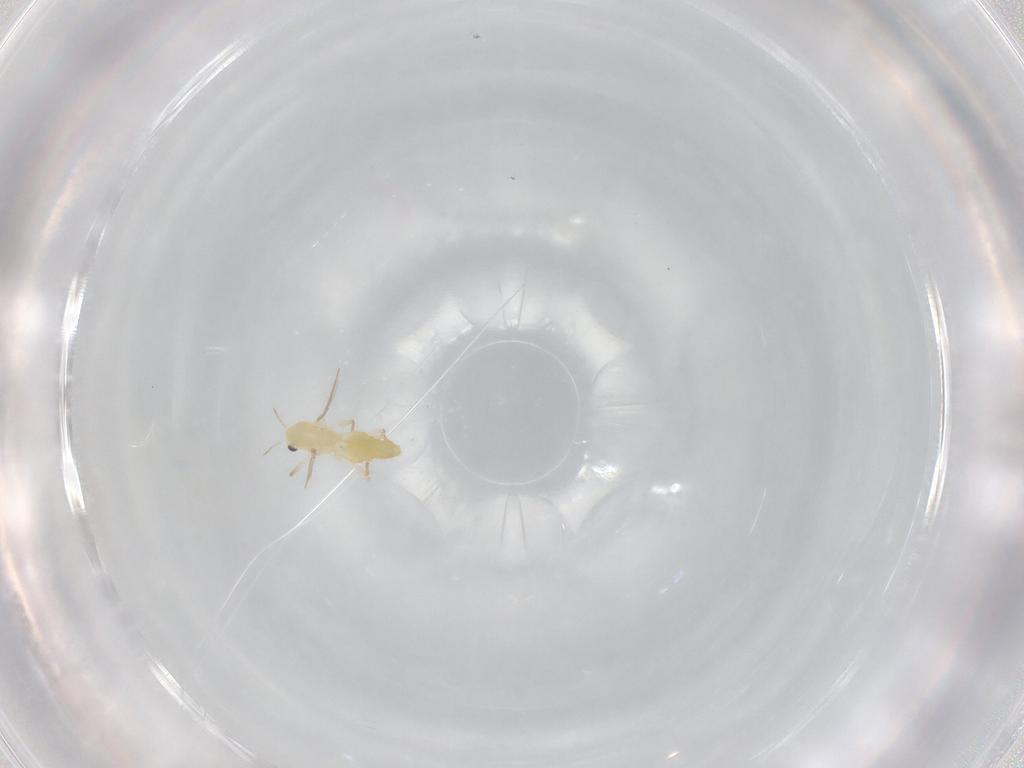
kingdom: Animalia
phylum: Arthropoda
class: Insecta
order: Diptera
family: Chironomidae
